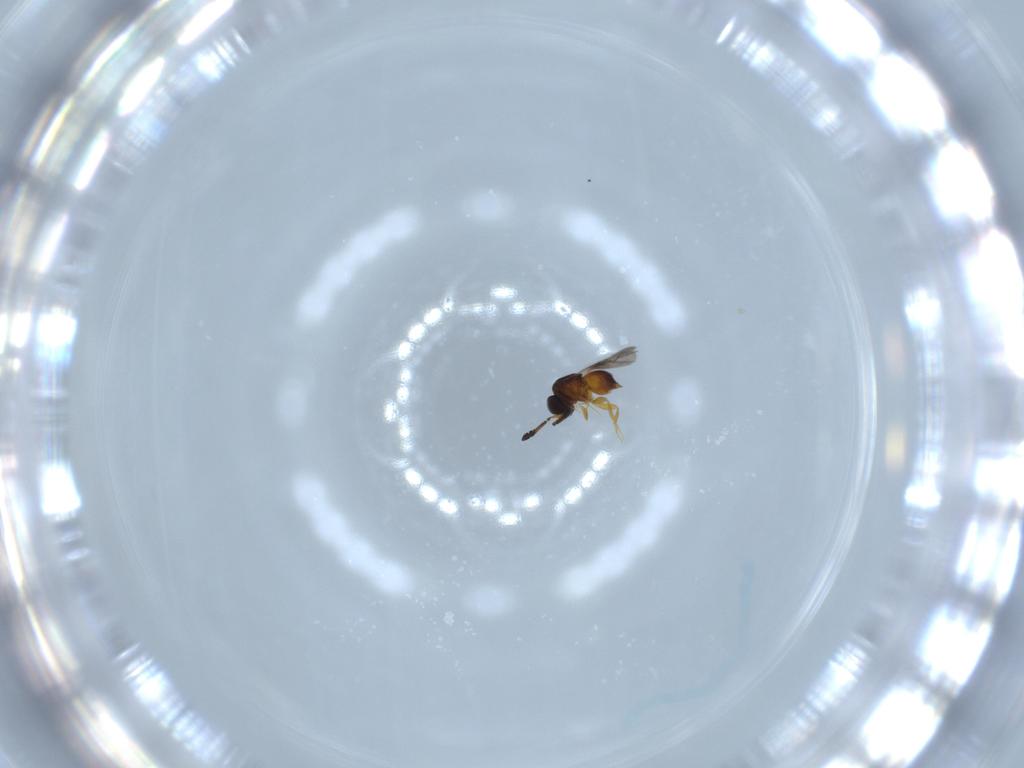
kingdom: Animalia
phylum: Arthropoda
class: Insecta
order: Hymenoptera
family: Ceraphronidae
